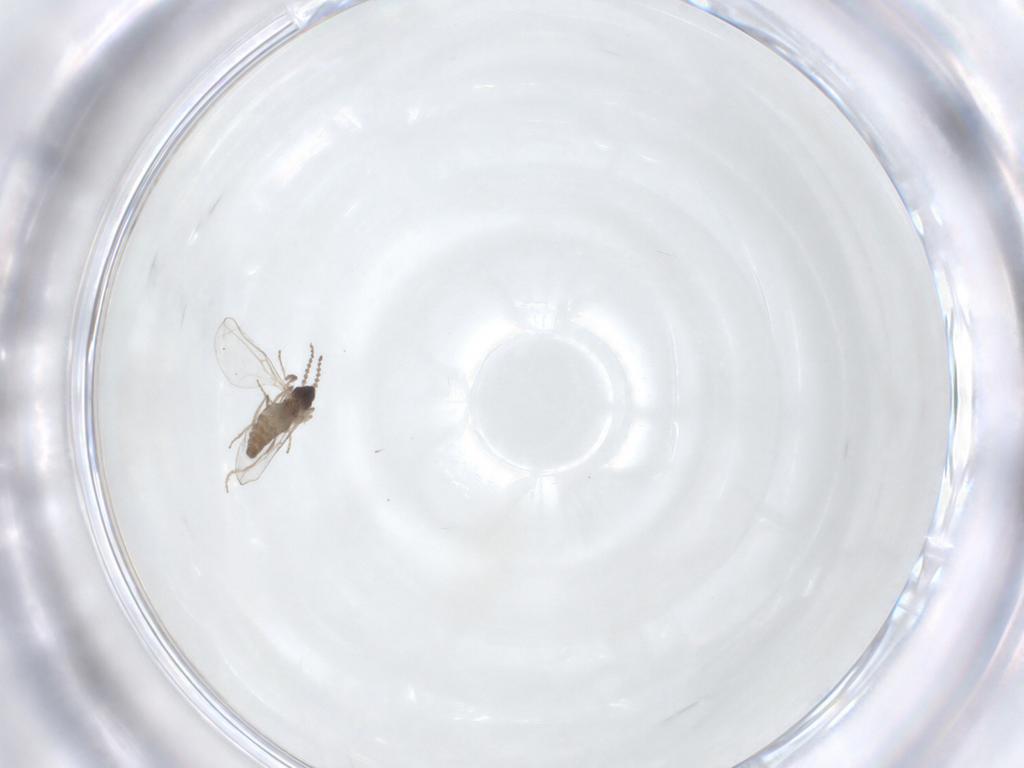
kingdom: Animalia
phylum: Arthropoda
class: Insecta
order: Diptera
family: Cecidomyiidae
